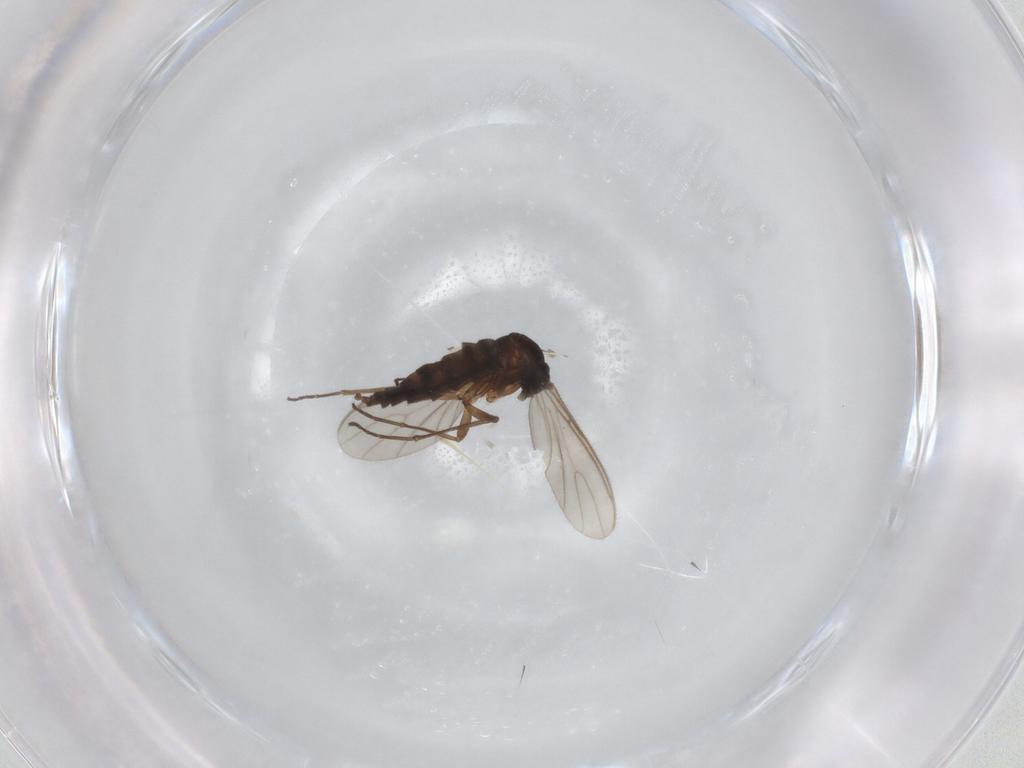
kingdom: Animalia
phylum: Arthropoda
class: Insecta
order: Diptera
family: Sciaridae
